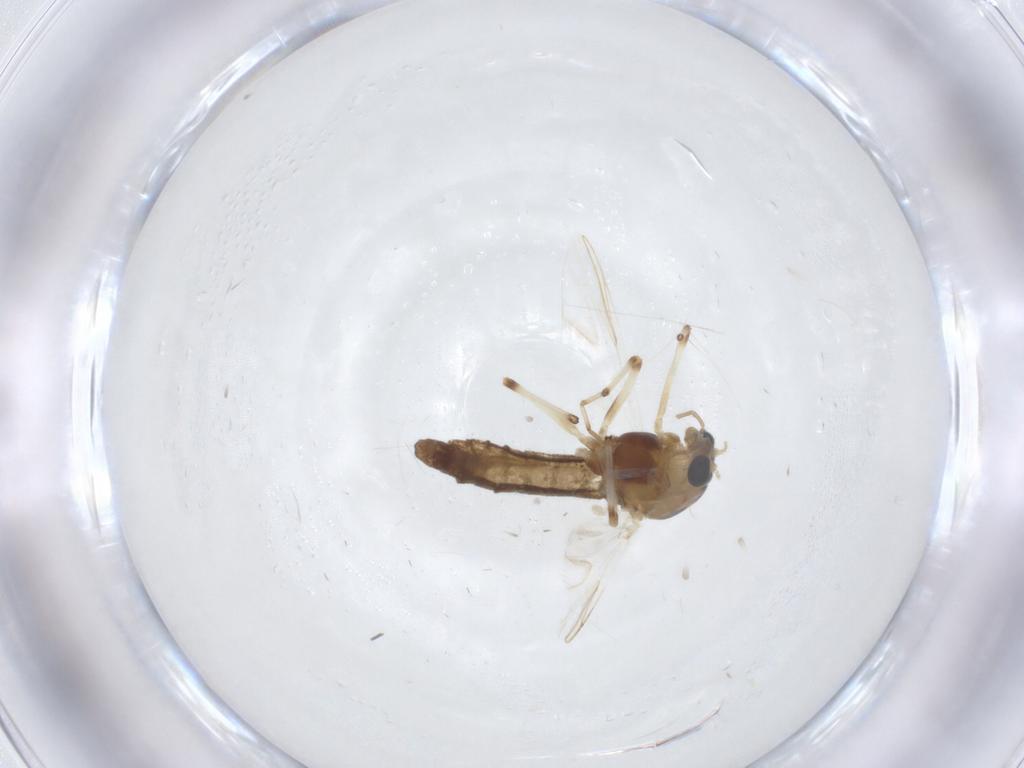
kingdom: Animalia
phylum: Arthropoda
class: Insecta
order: Diptera
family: Chironomidae
